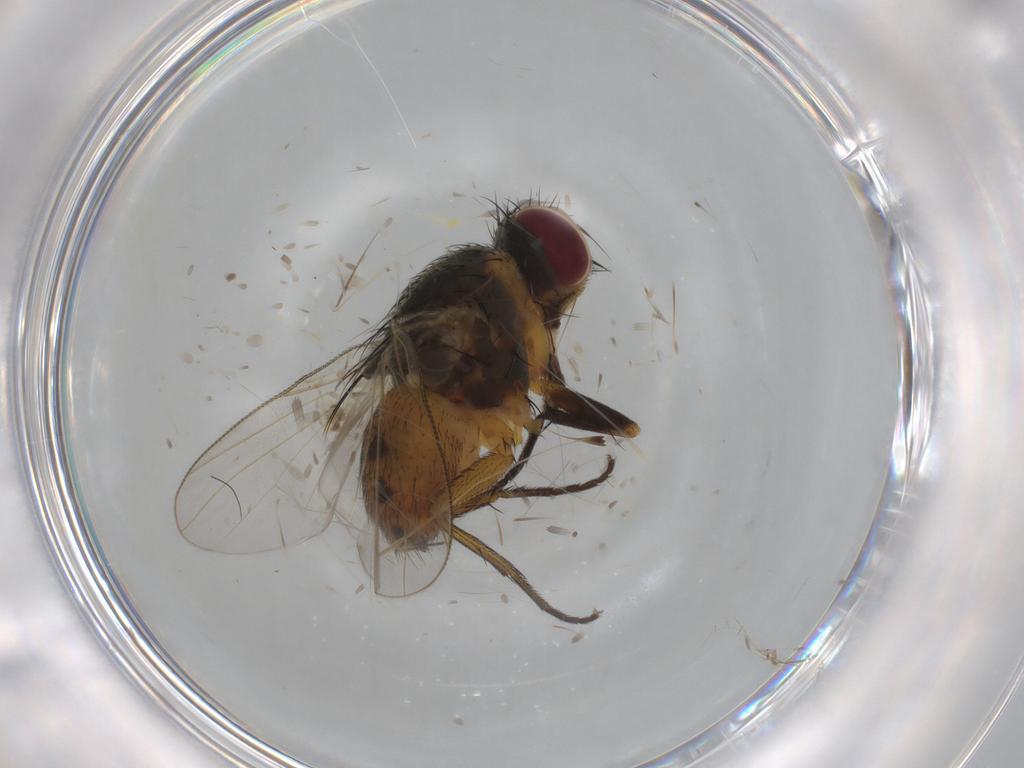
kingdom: Animalia
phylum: Arthropoda
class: Insecta
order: Diptera
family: Muscidae
